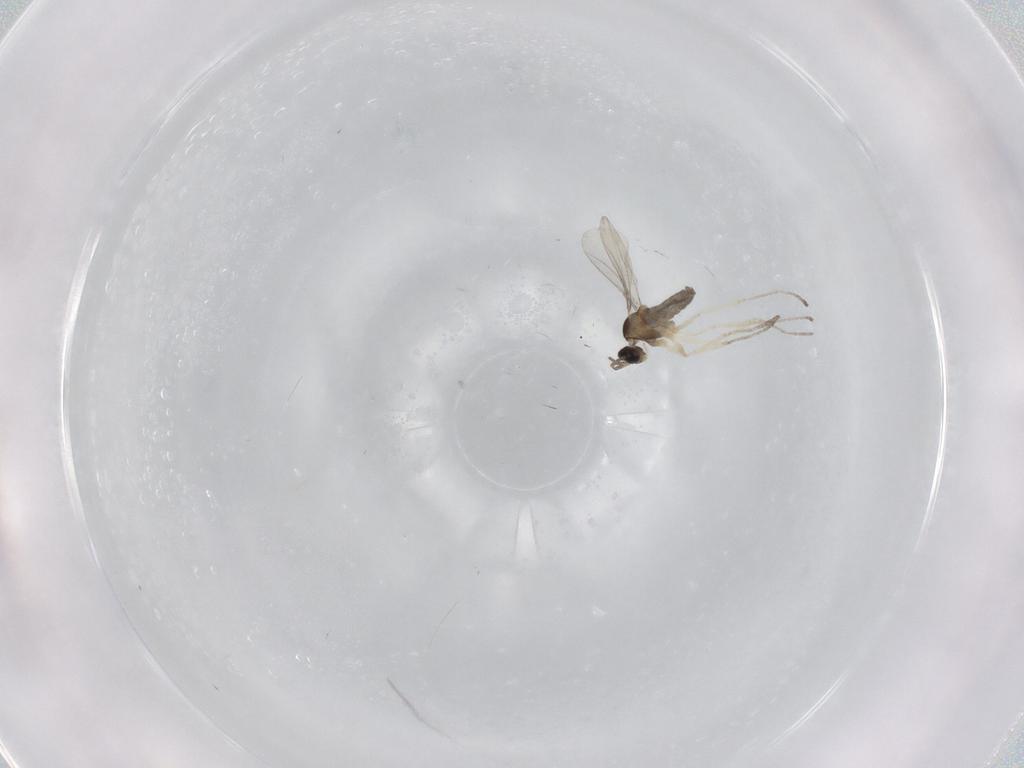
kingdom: Animalia
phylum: Arthropoda
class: Insecta
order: Diptera
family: Cecidomyiidae
